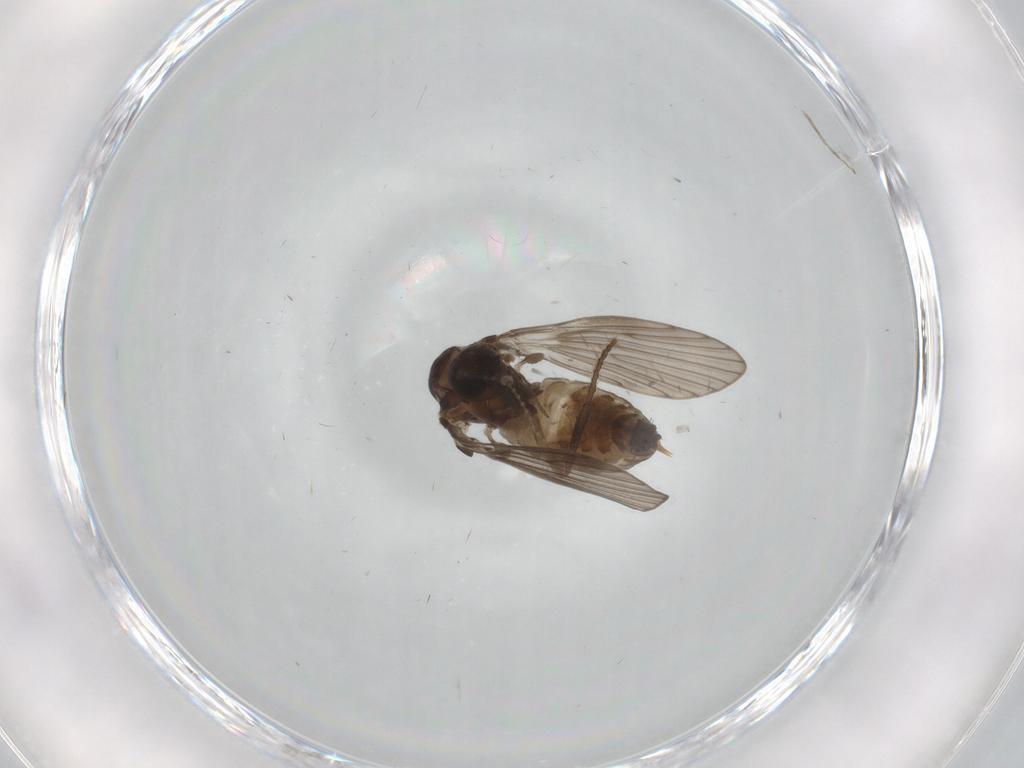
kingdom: Animalia
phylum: Arthropoda
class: Insecta
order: Diptera
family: Psychodidae
